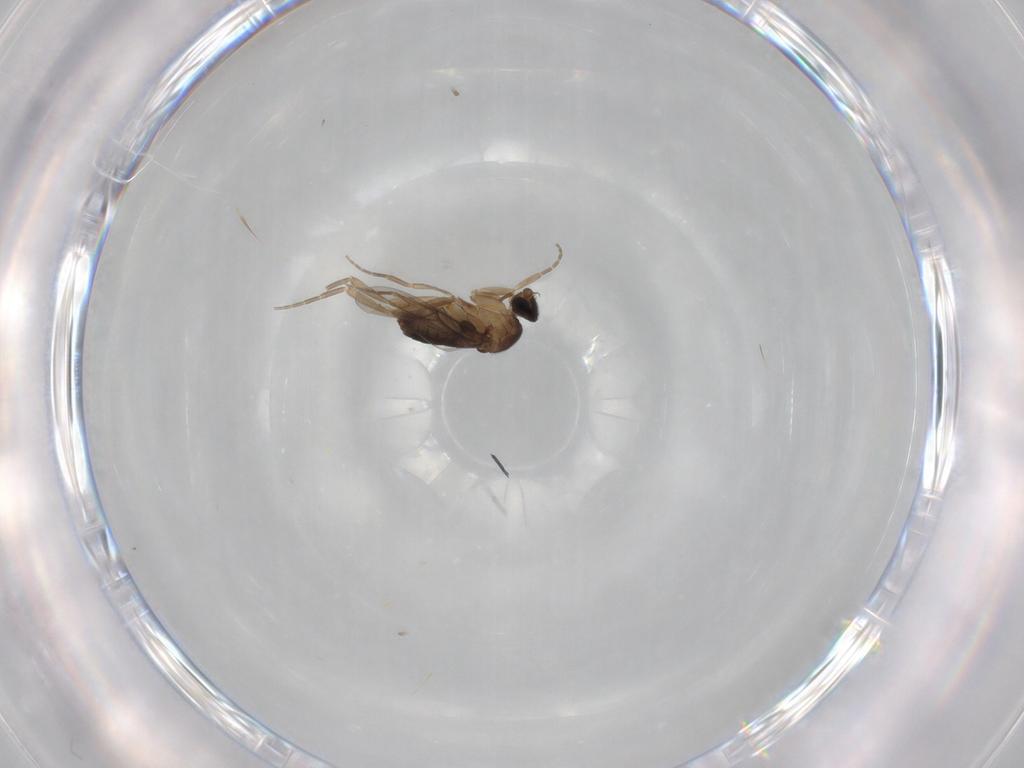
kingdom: Animalia
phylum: Arthropoda
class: Insecta
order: Diptera
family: Phoridae
